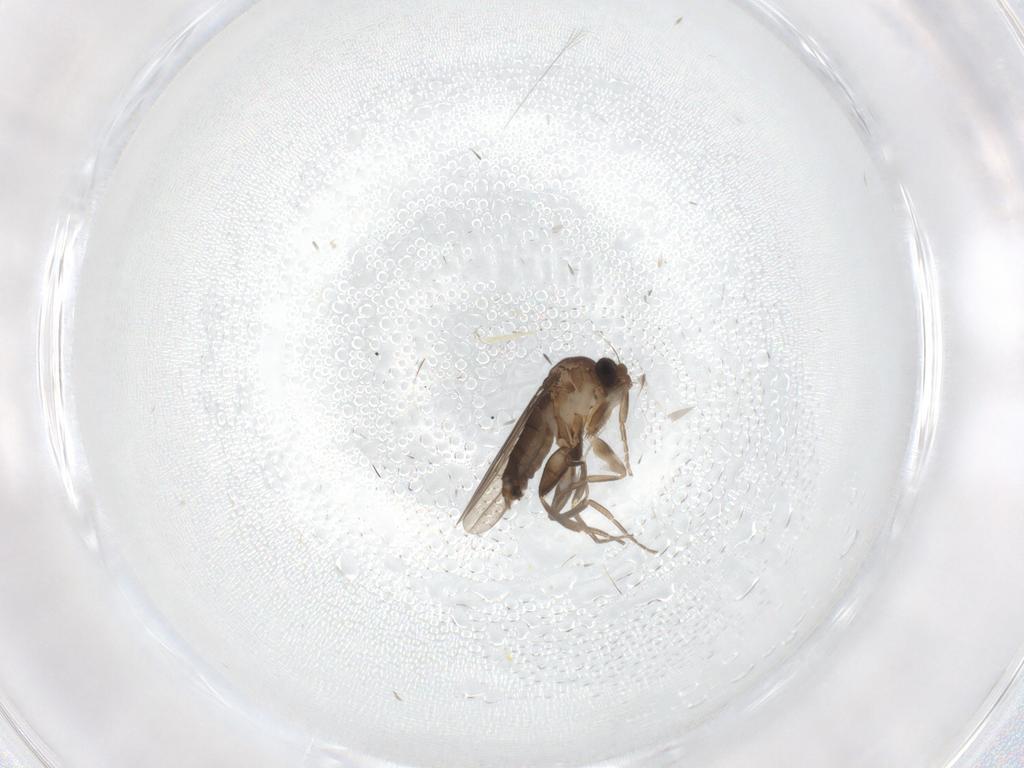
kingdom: Animalia
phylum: Arthropoda
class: Insecta
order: Diptera
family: Phoridae
